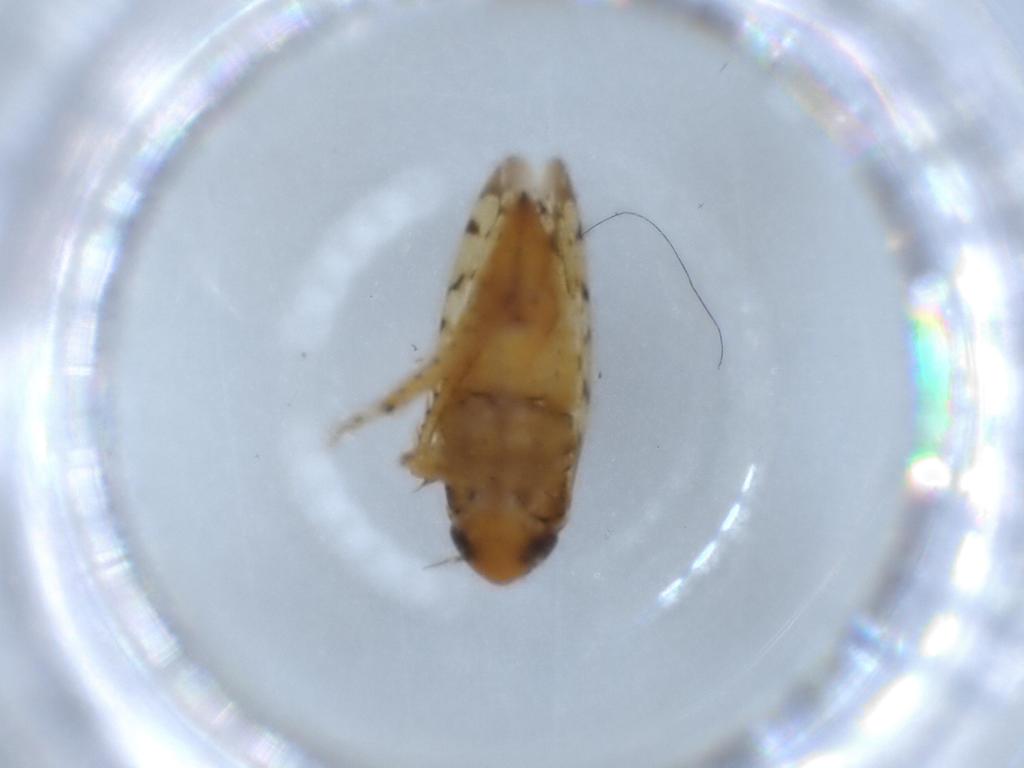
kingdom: Animalia
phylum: Arthropoda
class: Insecta
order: Hemiptera
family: Cicadellidae
